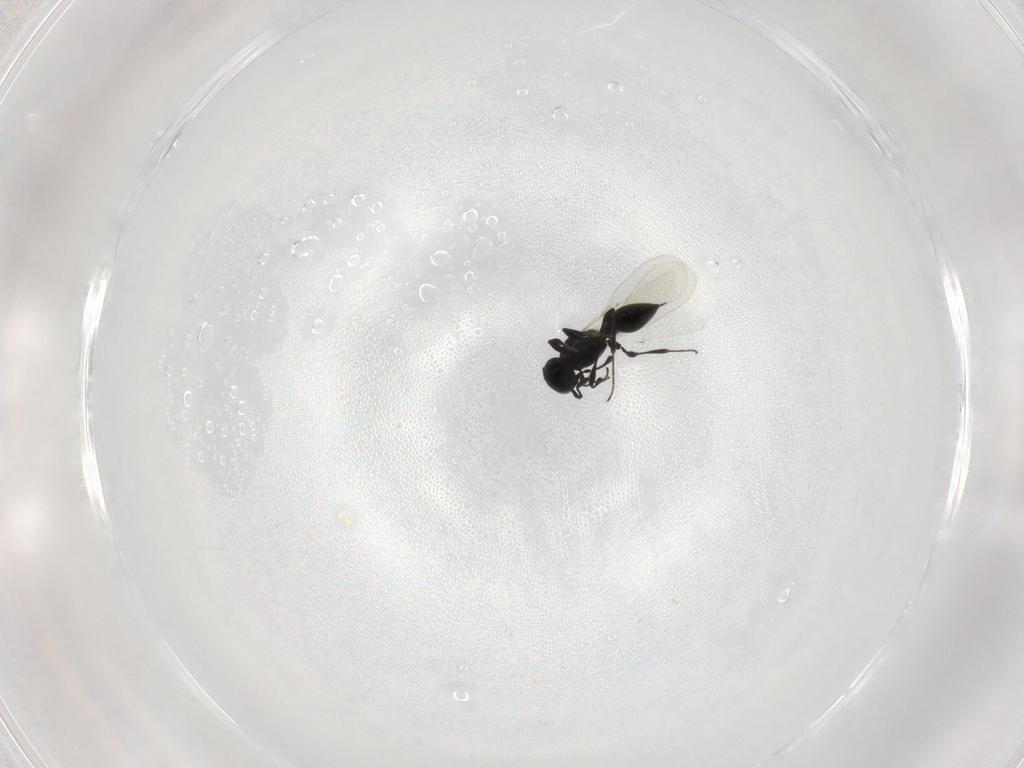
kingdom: Animalia
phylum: Arthropoda
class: Insecta
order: Hymenoptera
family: Platygastridae
